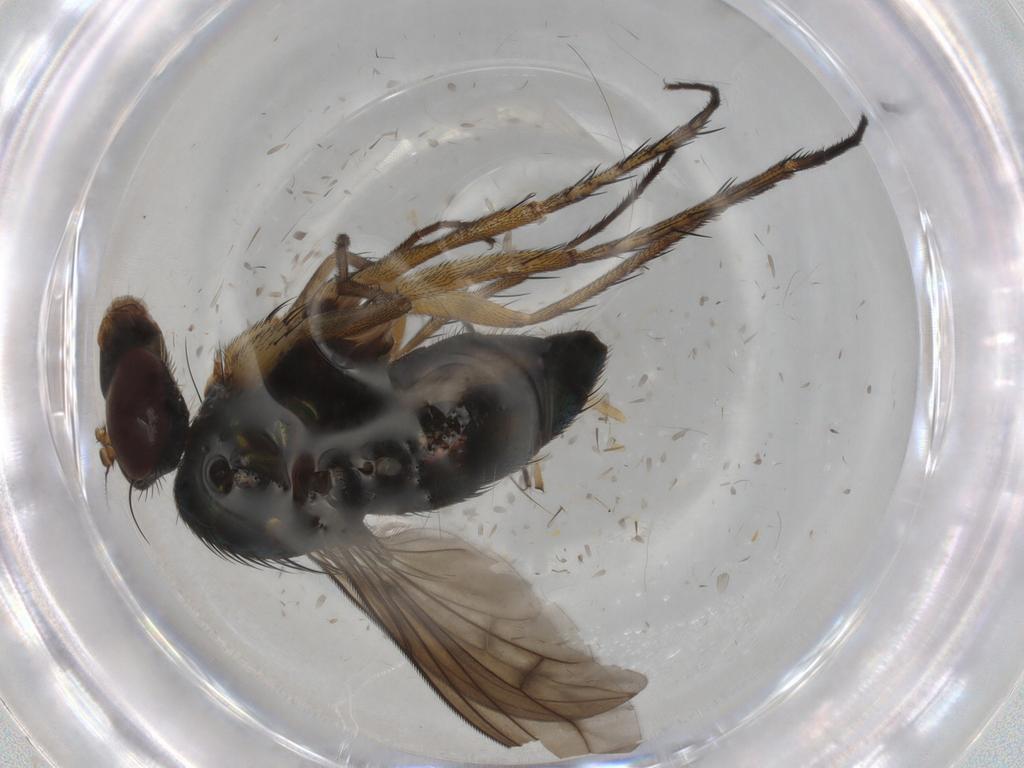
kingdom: Animalia
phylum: Arthropoda
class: Insecta
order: Diptera
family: Dolichopodidae
